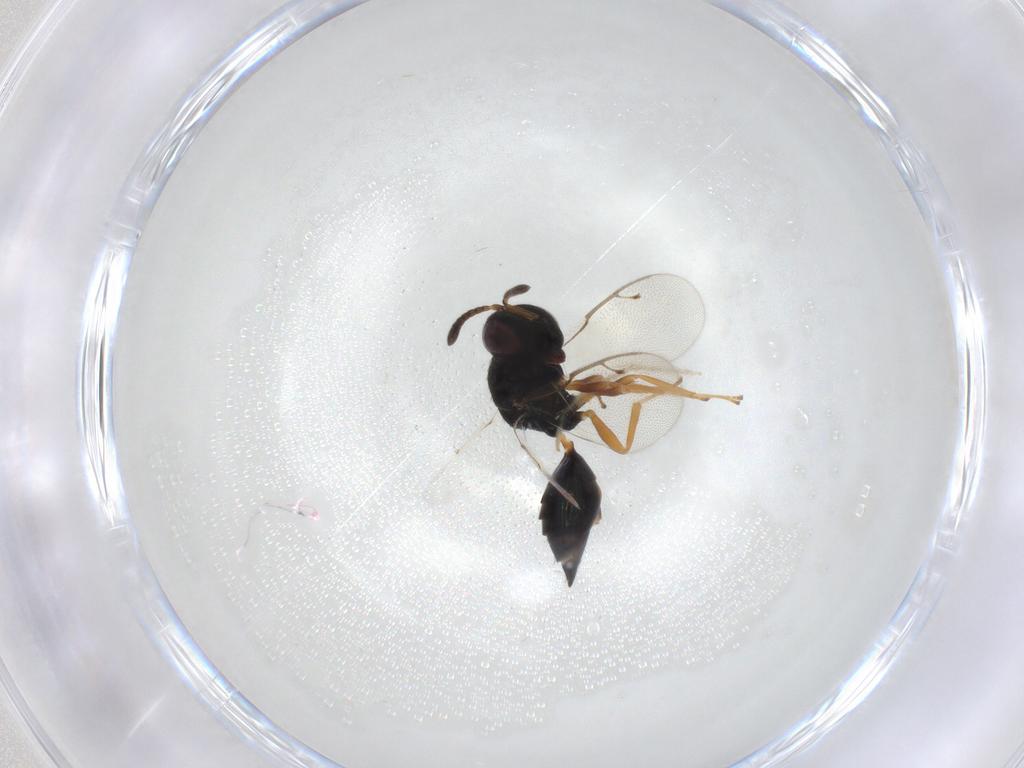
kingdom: Animalia
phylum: Arthropoda
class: Insecta
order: Hymenoptera
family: Pteromalidae
